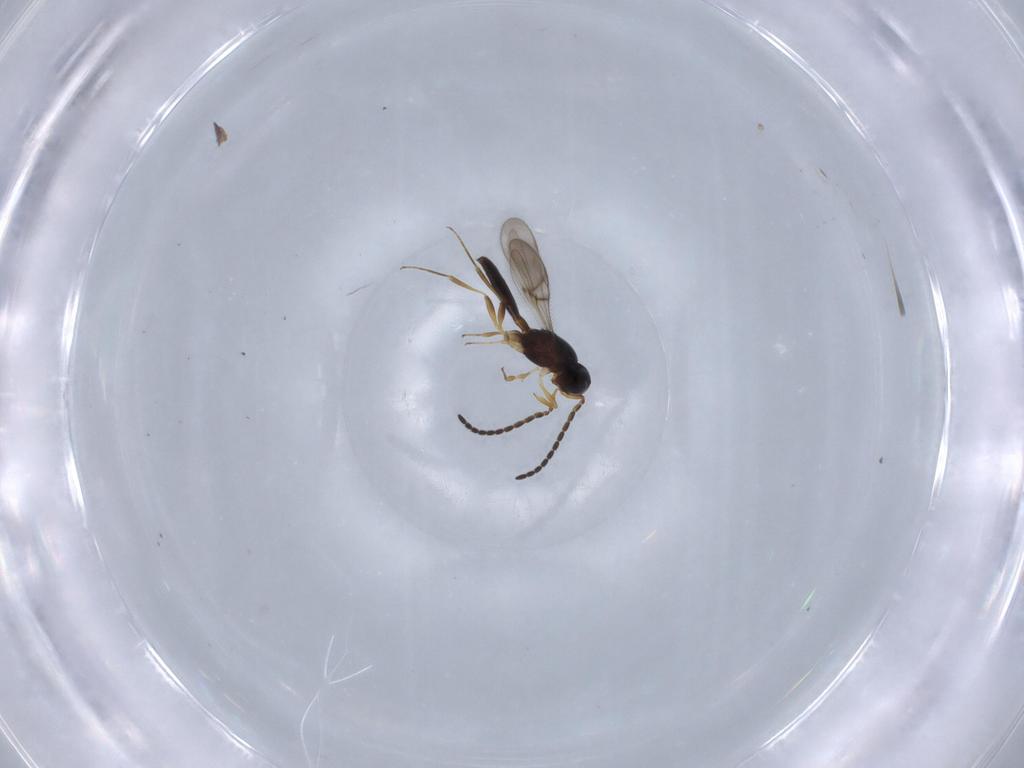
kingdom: Animalia
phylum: Arthropoda
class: Insecta
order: Hymenoptera
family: Scelionidae
